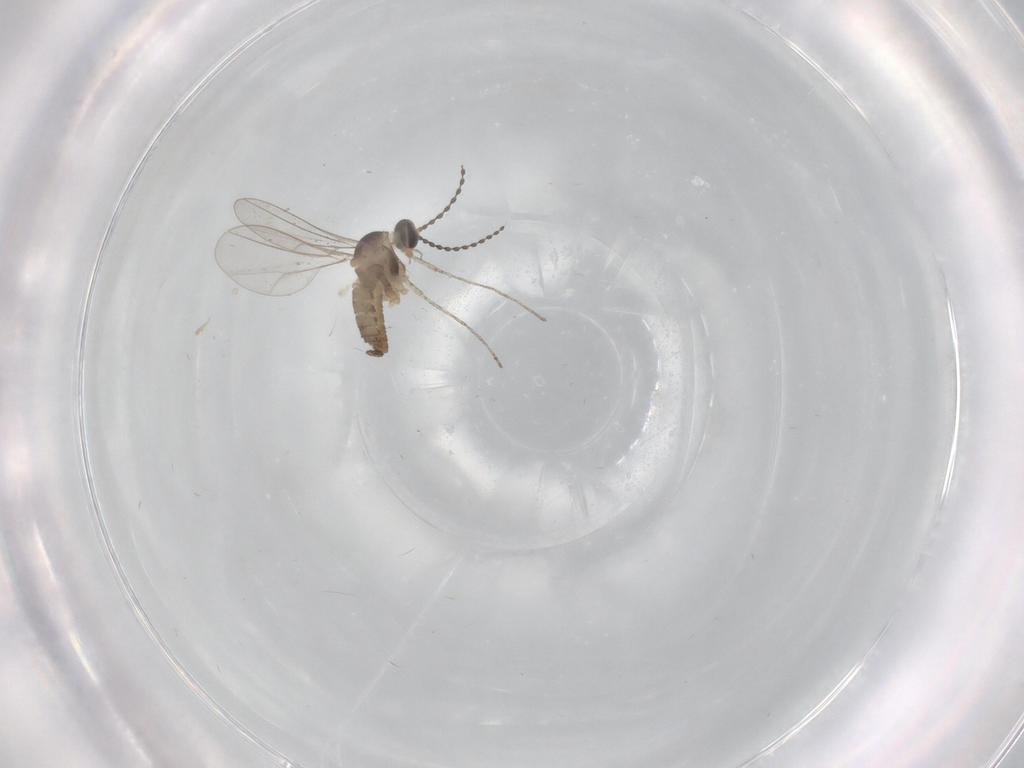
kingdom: Animalia
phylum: Arthropoda
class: Insecta
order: Diptera
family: Cecidomyiidae
